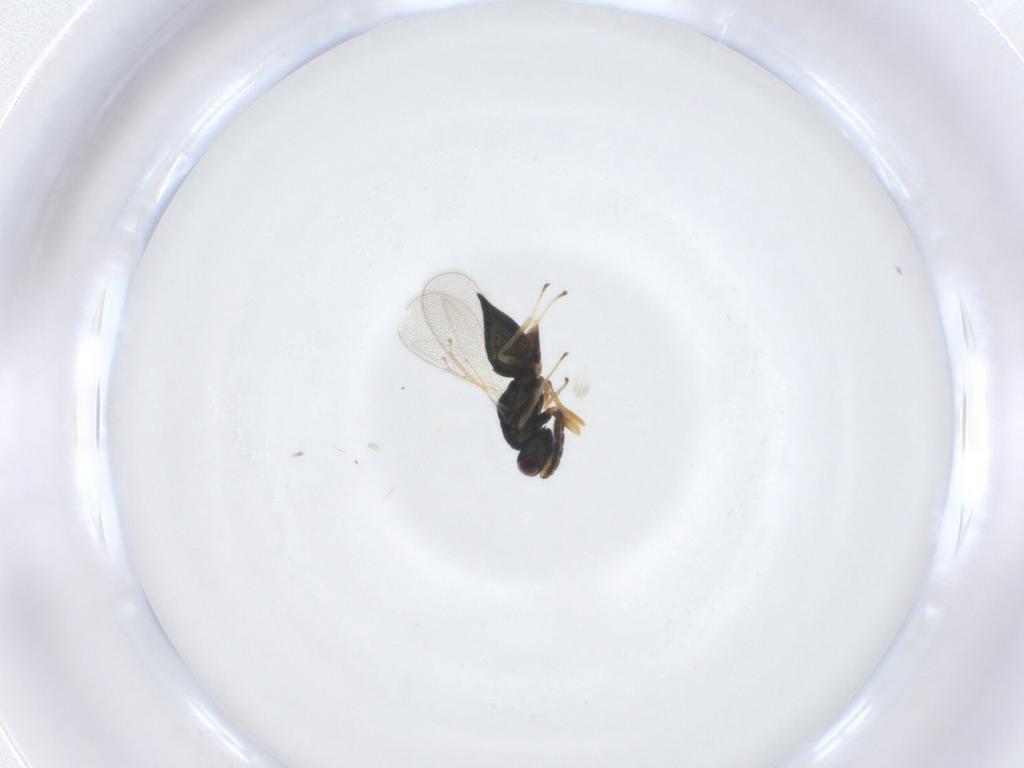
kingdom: Animalia
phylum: Arthropoda
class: Insecta
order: Hymenoptera
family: Eulophidae
